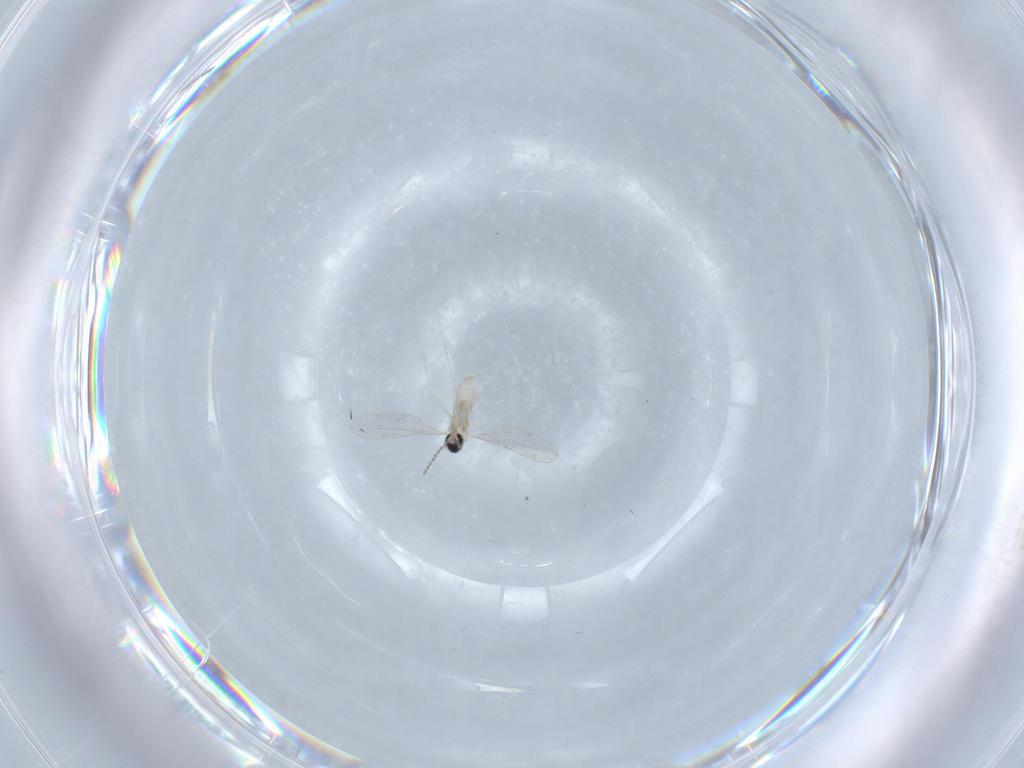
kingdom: Animalia
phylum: Arthropoda
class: Insecta
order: Diptera
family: Cecidomyiidae
